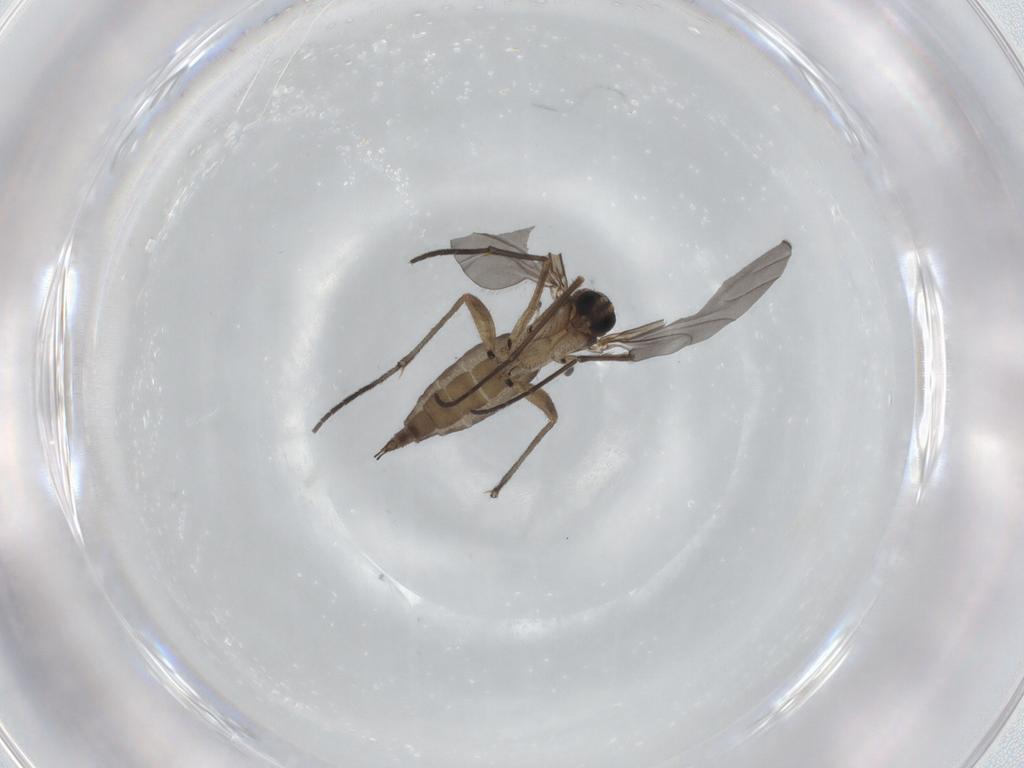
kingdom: Animalia
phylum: Arthropoda
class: Insecta
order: Diptera
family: Sciaridae
